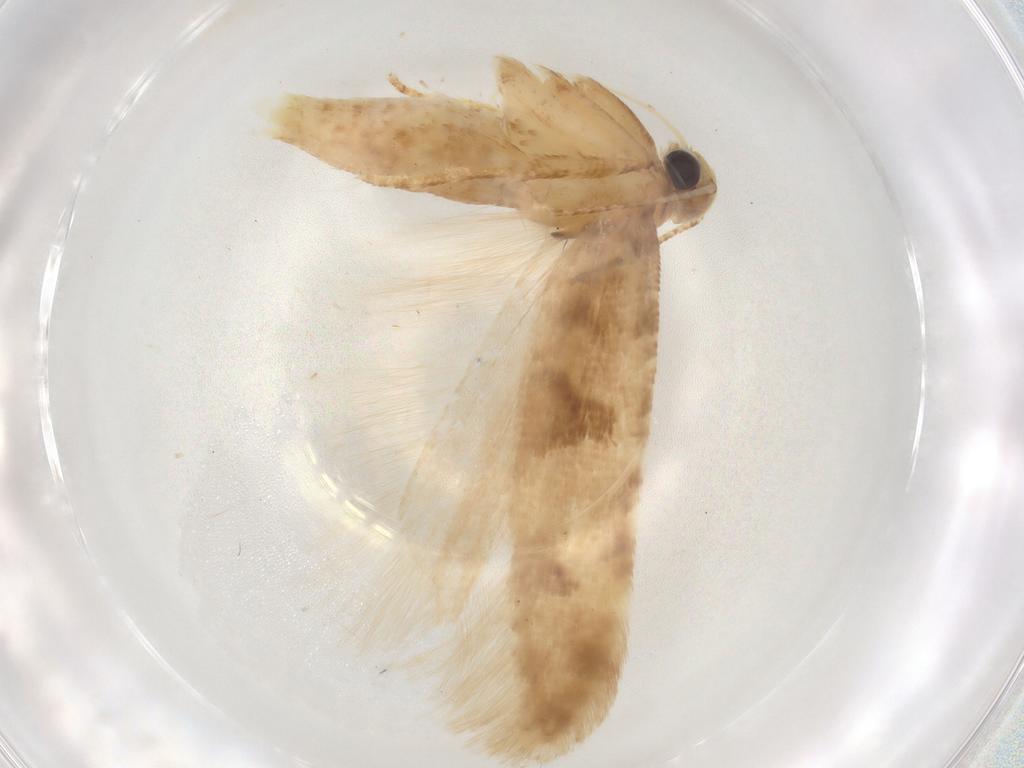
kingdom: Animalia
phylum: Arthropoda
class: Insecta
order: Lepidoptera
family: Gelechiidae
